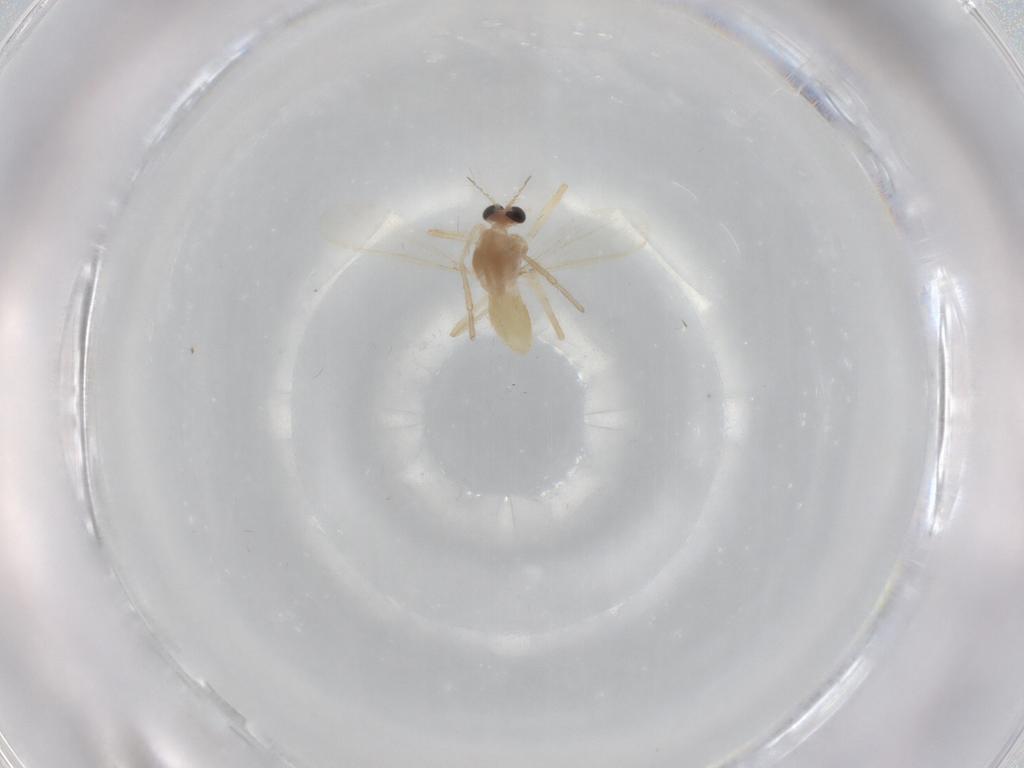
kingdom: Animalia
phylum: Arthropoda
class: Insecta
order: Diptera
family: Chironomidae
